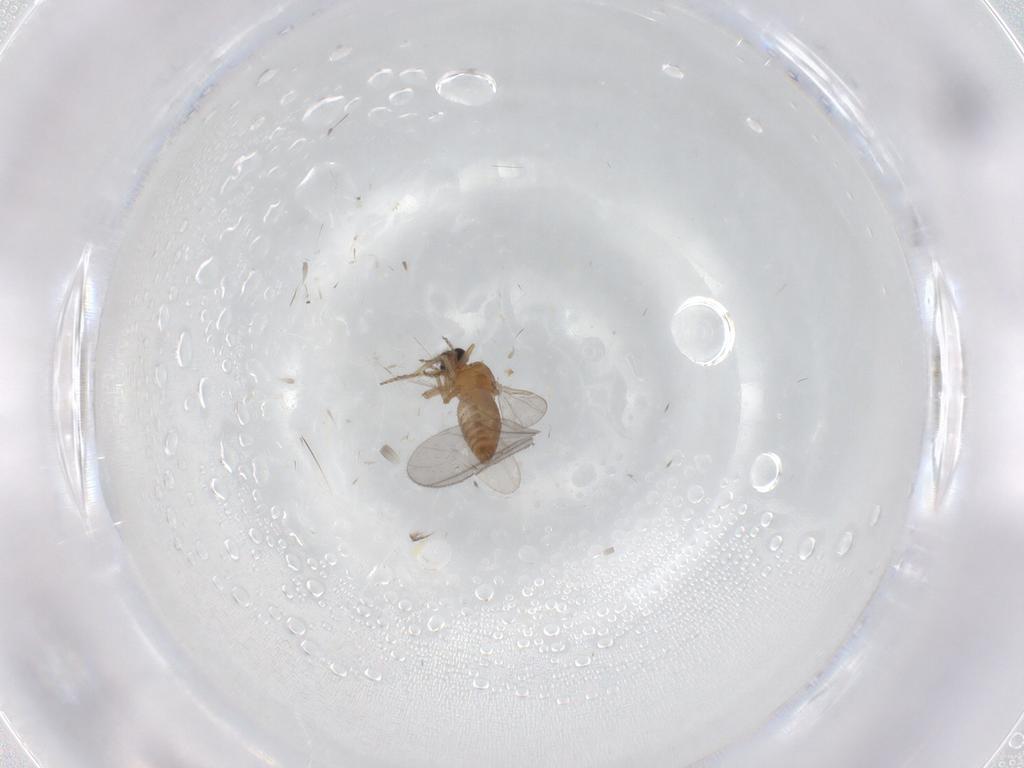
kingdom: Animalia
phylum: Arthropoda
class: Insecta
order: Diptera
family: Ceratopogonidae
